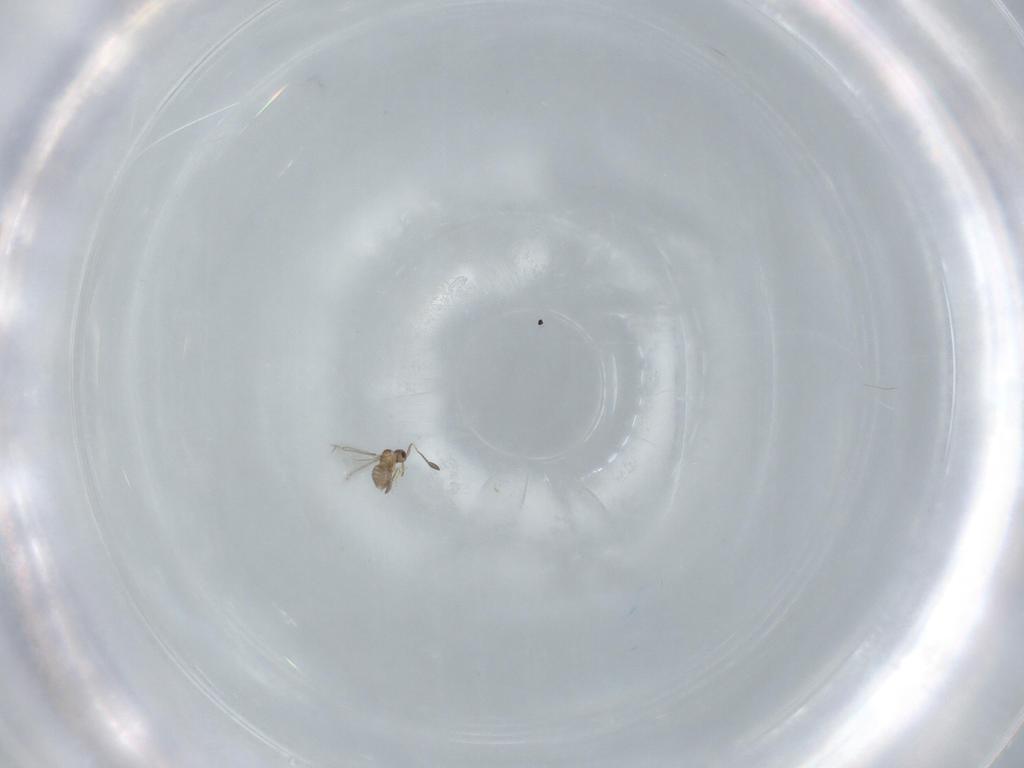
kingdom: Animalia
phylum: Arthropoda
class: Insecta
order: Hymenoptera
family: Mymaridae
